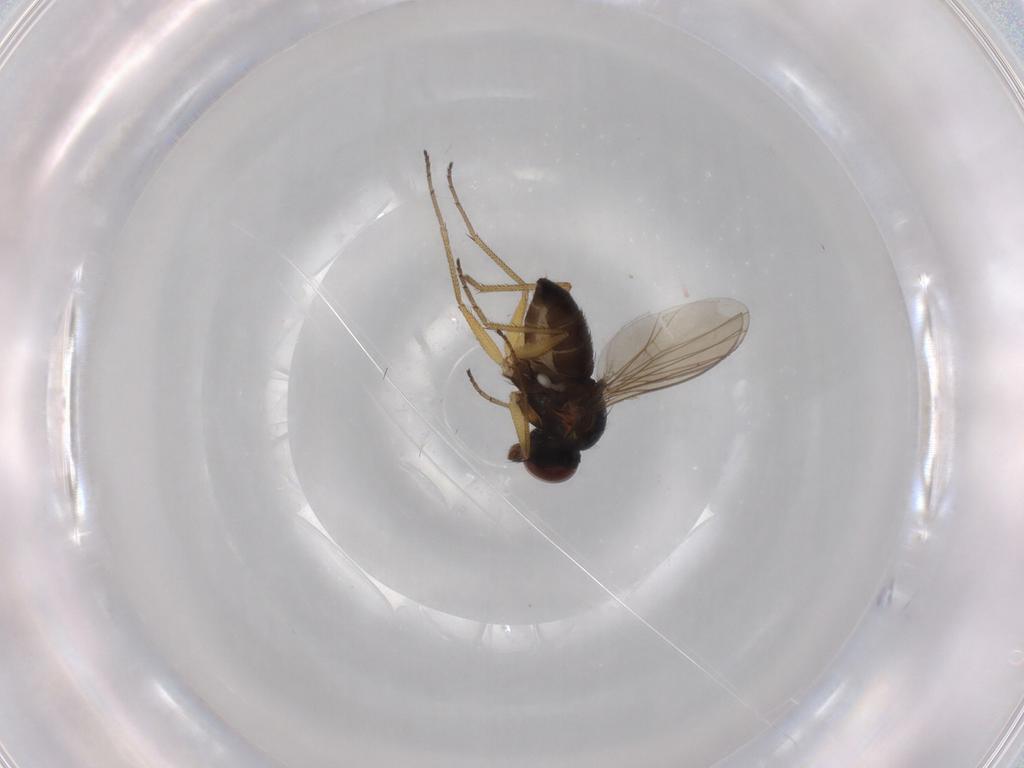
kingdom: Animalia
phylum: Arthropoda
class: Insecta
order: Diptera
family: Dolichopodidae
